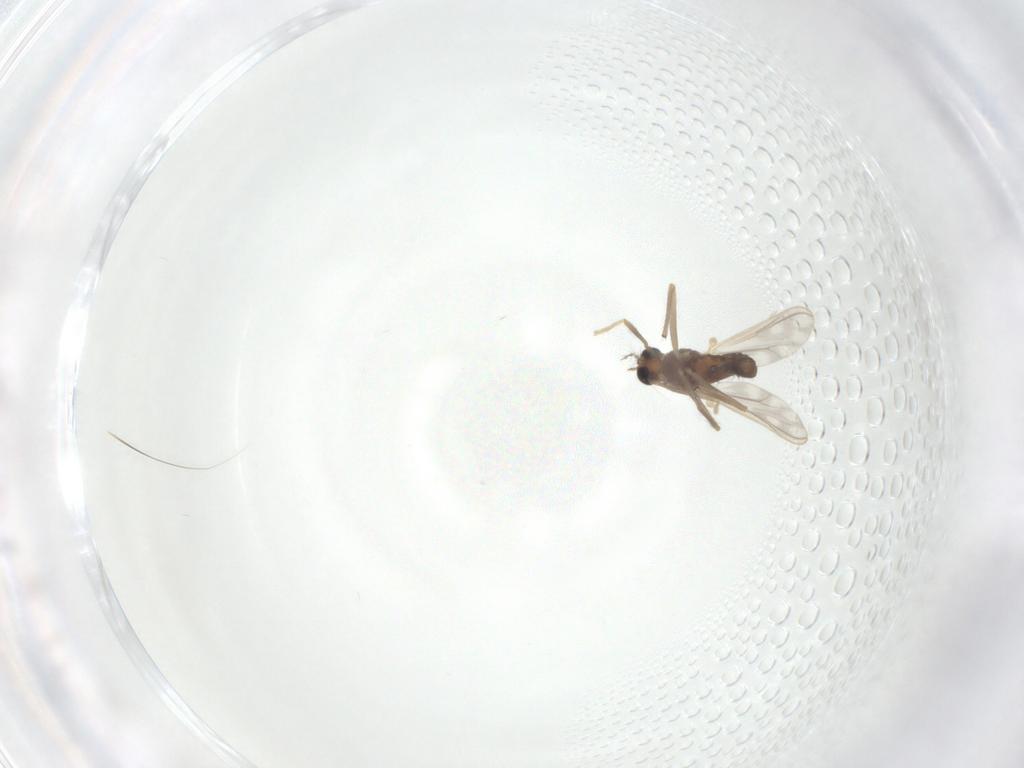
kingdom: Animalia
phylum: Arthropoda
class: Insecta
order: Diptera
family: Chironomidae
